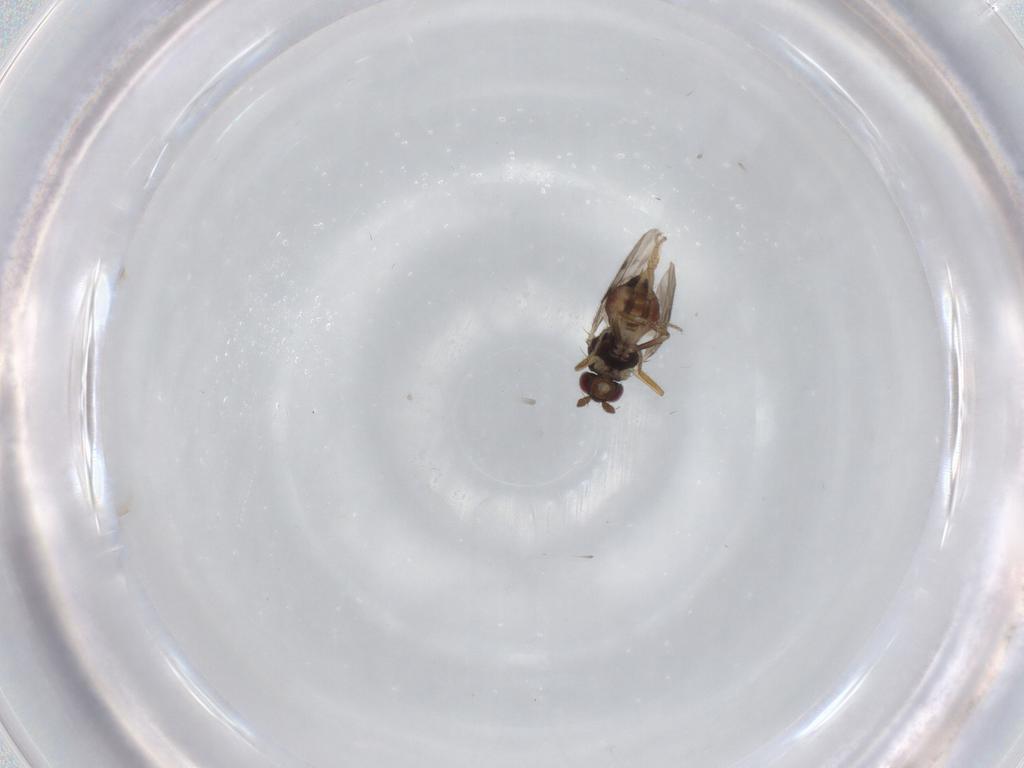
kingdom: Animalia
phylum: Arthropoda
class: Insecta
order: Diptera
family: Sphaeroceridae
